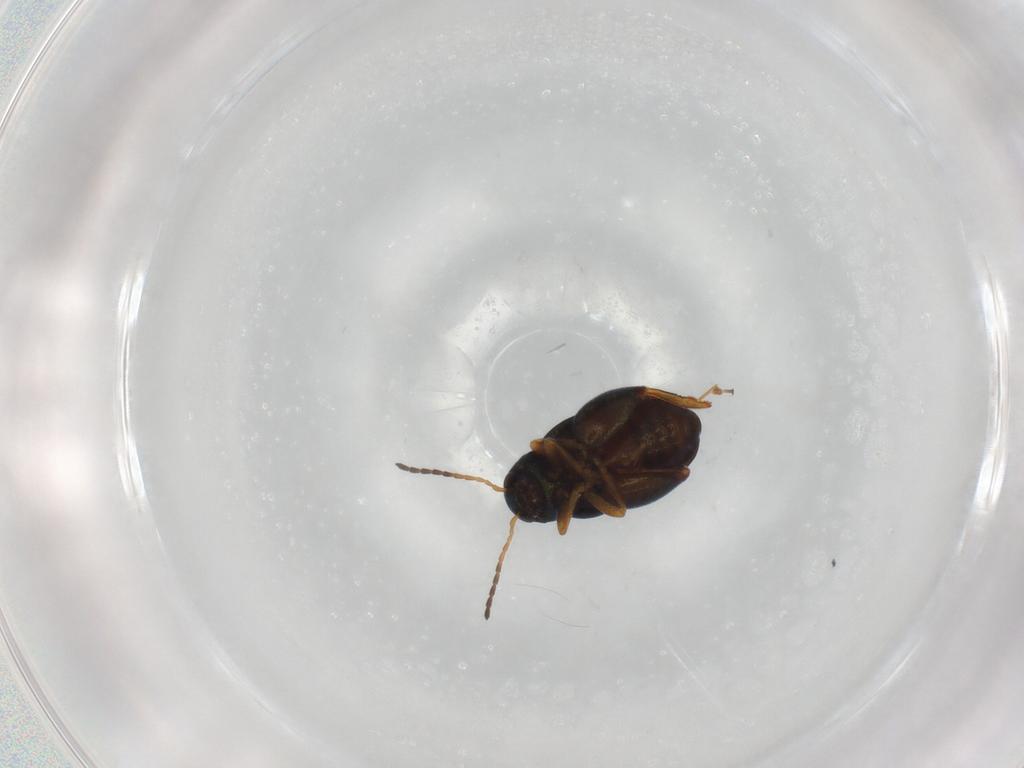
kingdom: Animalia
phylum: Arthropoda
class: Insecta
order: Coleoptera
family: Chrysomelidae
